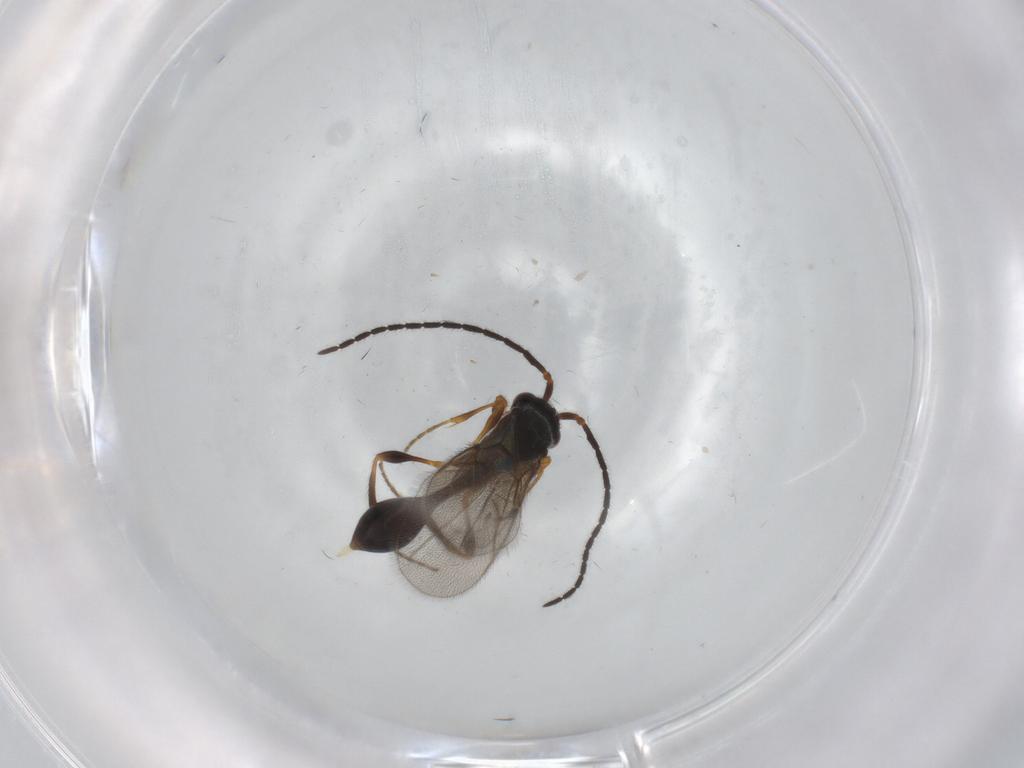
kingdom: Animalia
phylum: Arthropoda
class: Insecta
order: Hymenoptera
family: Diapriidae
